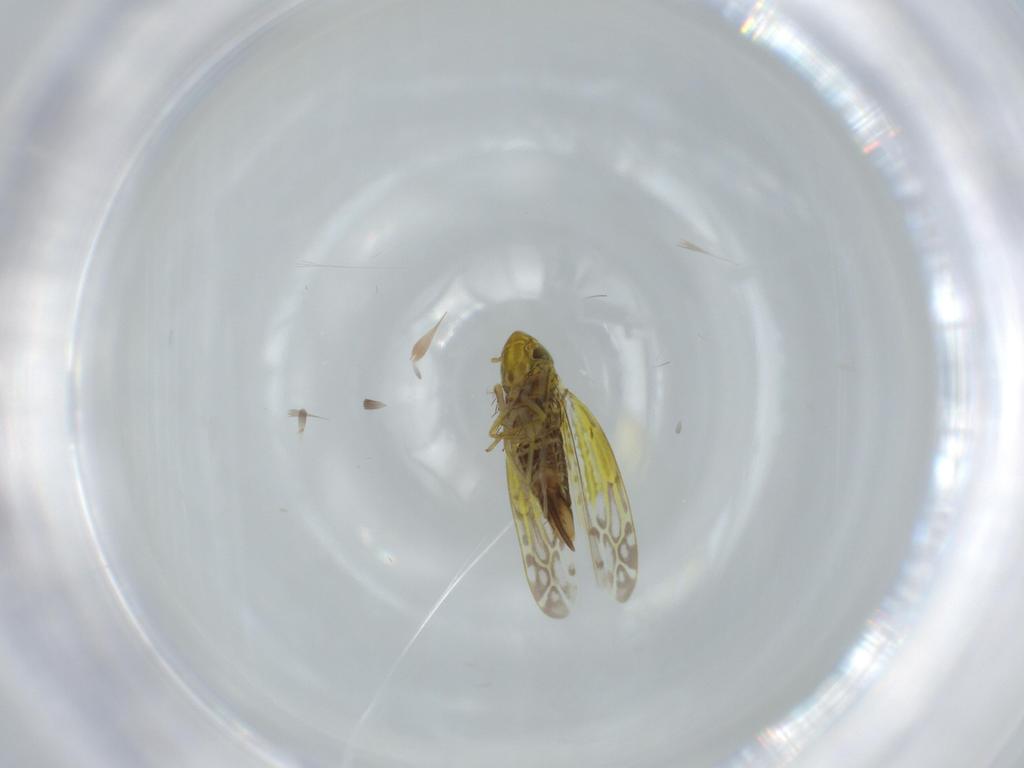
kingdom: Animalia
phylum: Arthropoda
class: Insecta
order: Hemiptera
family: Cicadellidae
